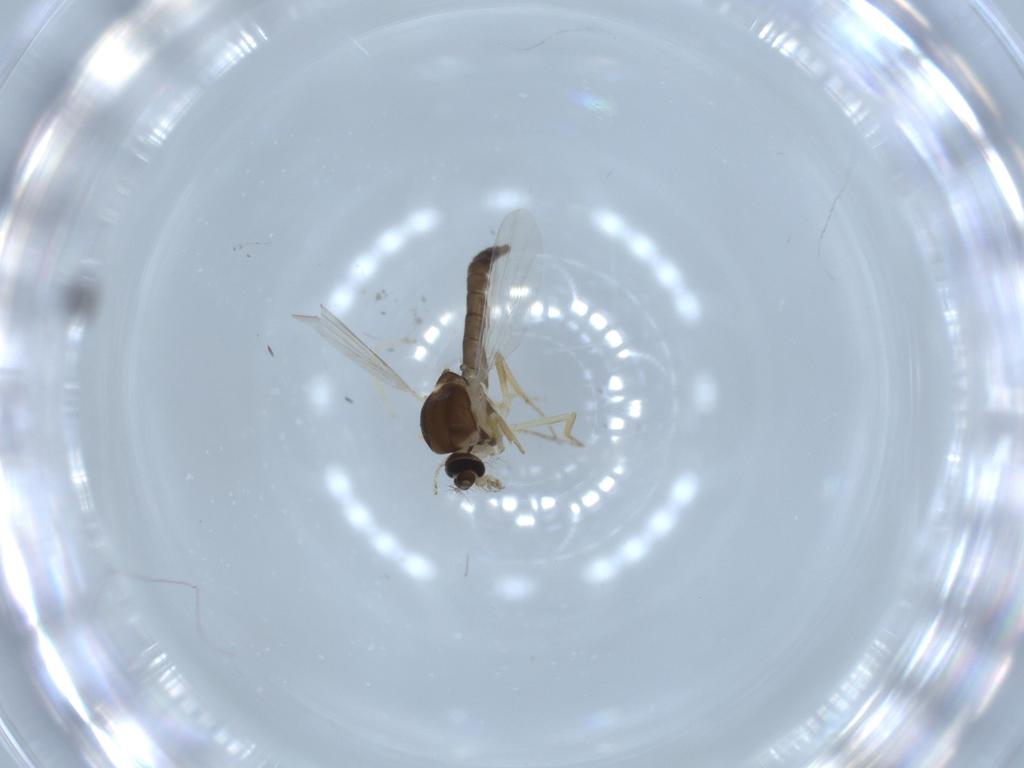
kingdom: Animalia
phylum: Arthropoda
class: Insecta
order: Diptera
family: Ceratopogonidae
